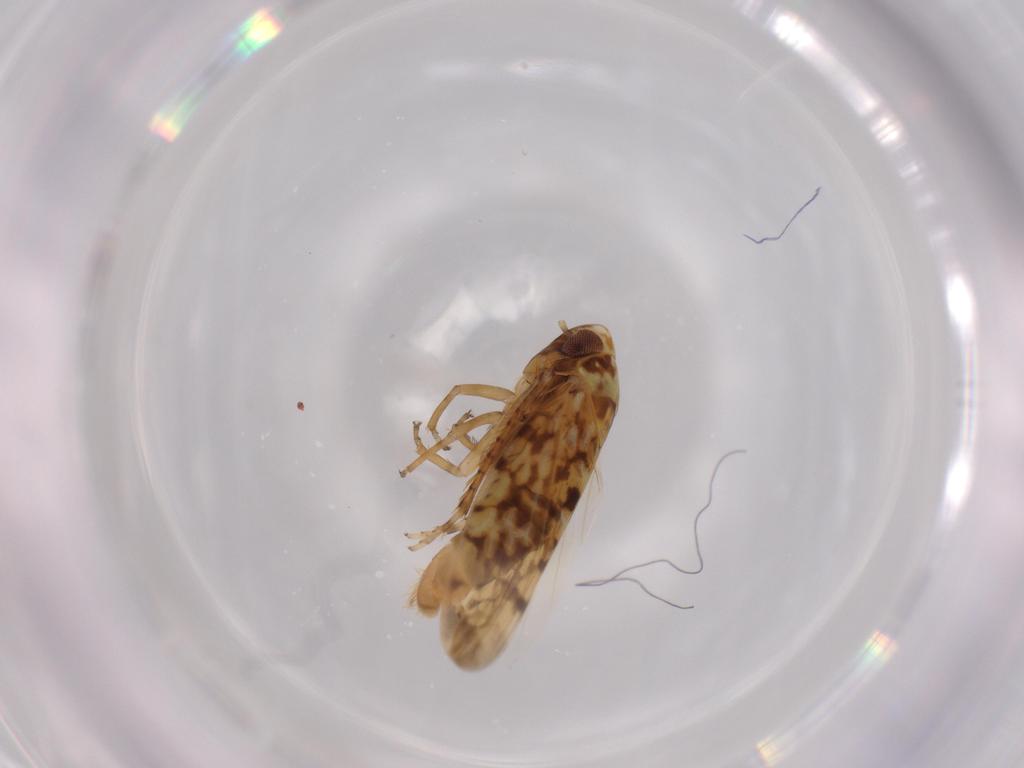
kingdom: Animalia
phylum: Arthropoda
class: Insecta
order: Hemiptera
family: Cicadellidae
